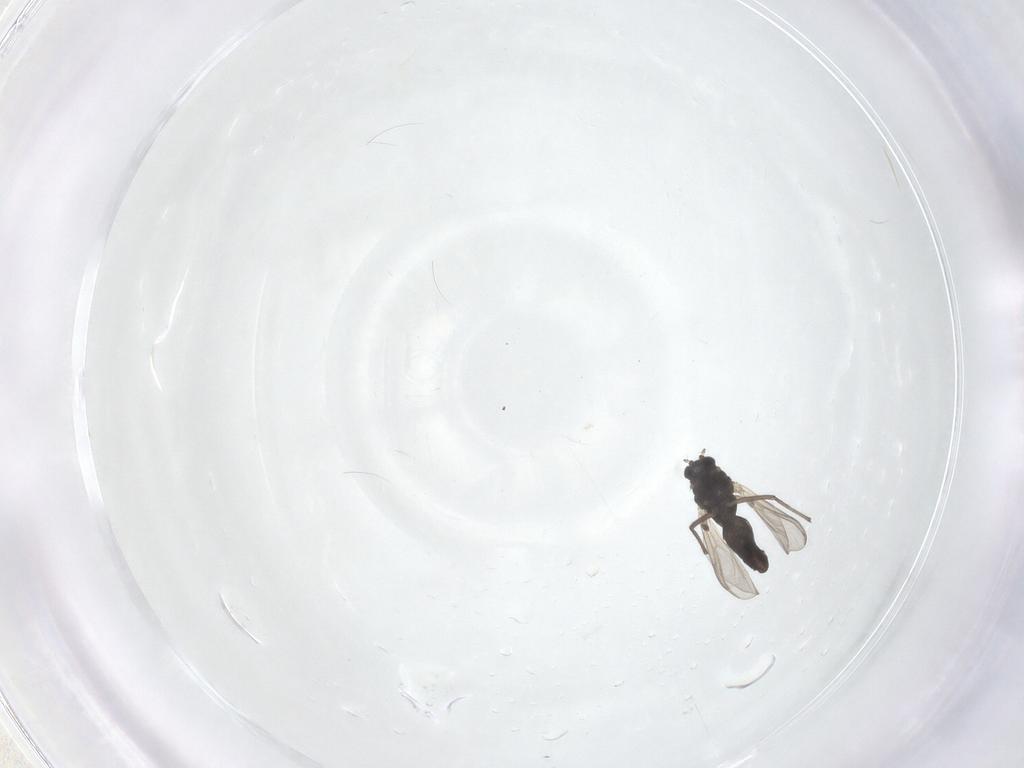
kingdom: Animalia
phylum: Arthropoda
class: Insecta
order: Diptera
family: Chironomidae
